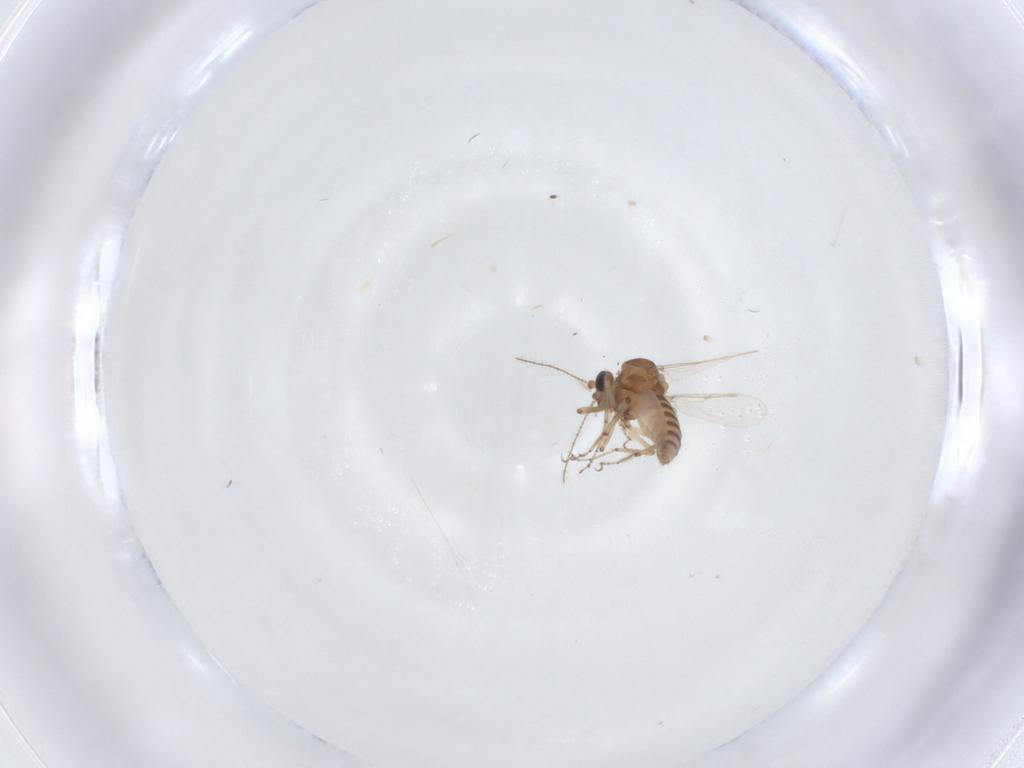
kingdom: Animalia
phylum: Arthropoda
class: Insecta
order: Diptera
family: Ceratopogonidae
